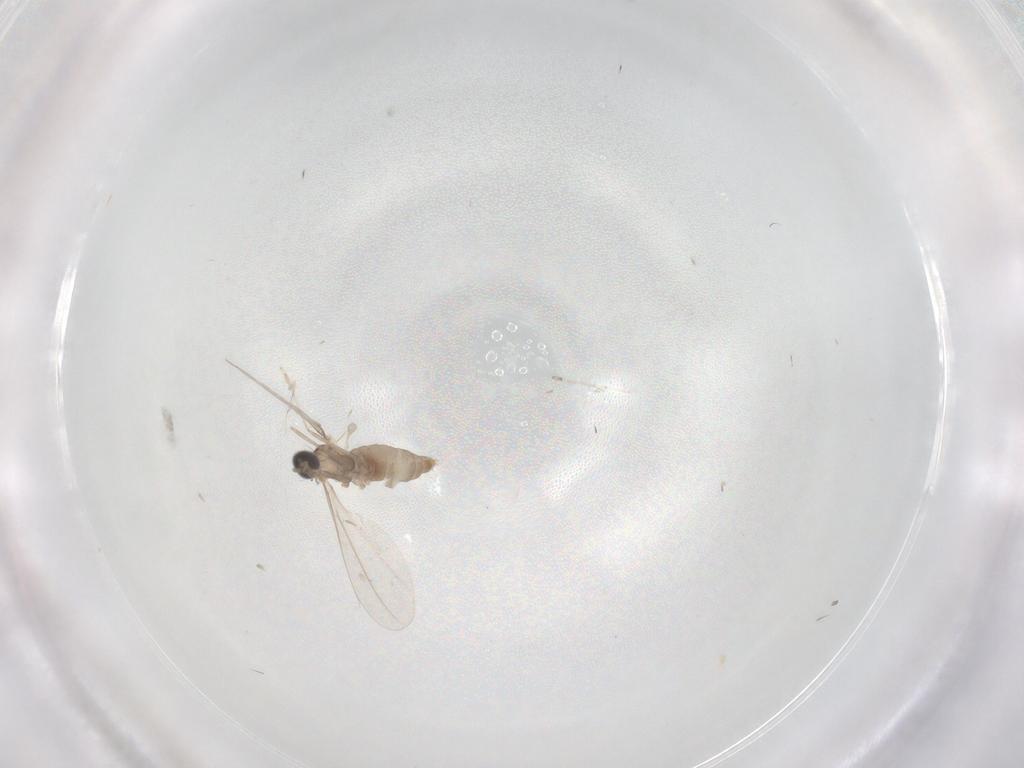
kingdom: Animalia
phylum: Arthropoda
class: Insecta
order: Diptera
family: Cecidomyiidae
